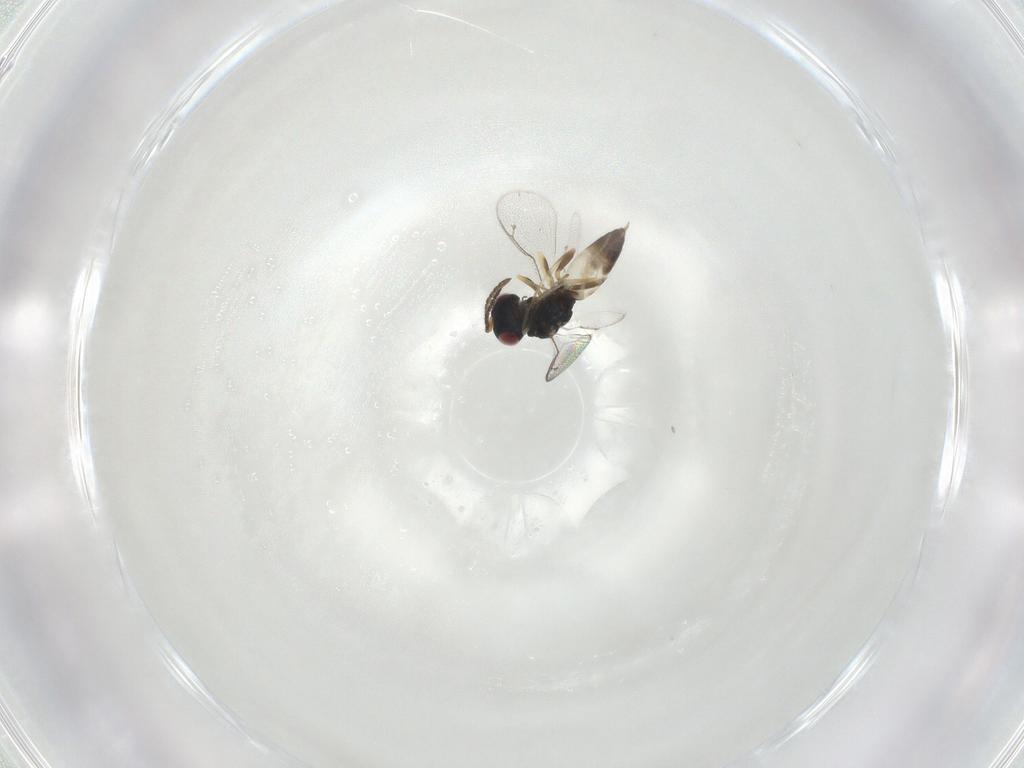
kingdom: Animalia
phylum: Arthropoda
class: Insecta
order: Hymenoptera
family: Pteromalidae
